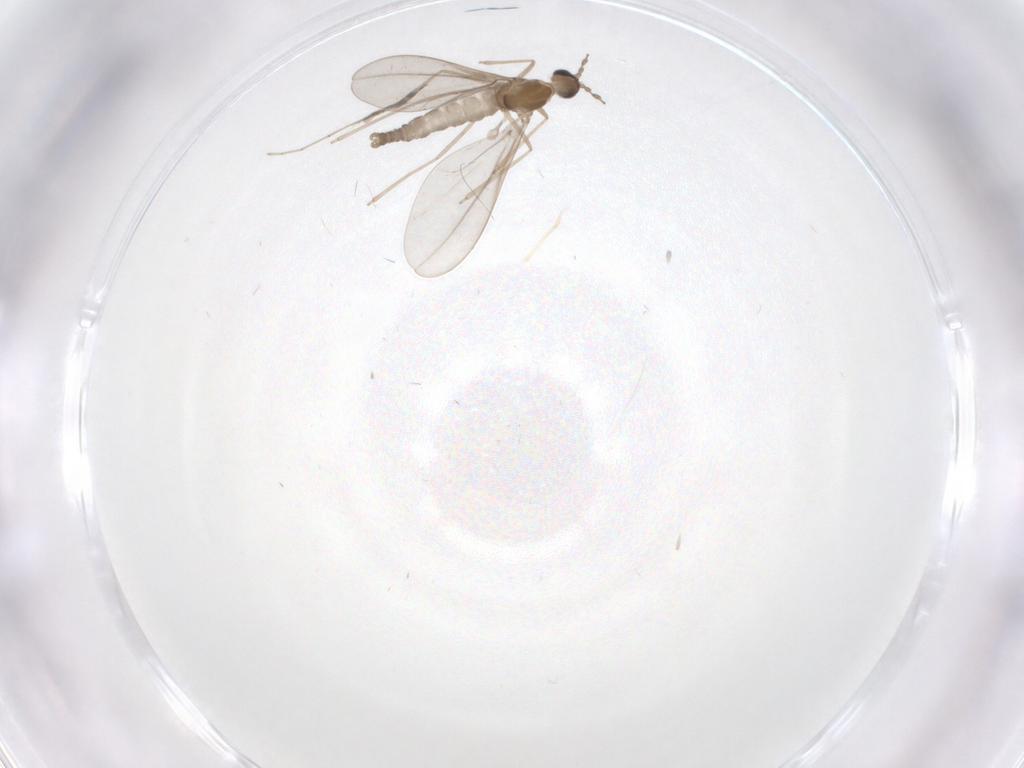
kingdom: Animalia
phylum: Arthropoda
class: Insecta
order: Diptera
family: Cecidomyiidae
